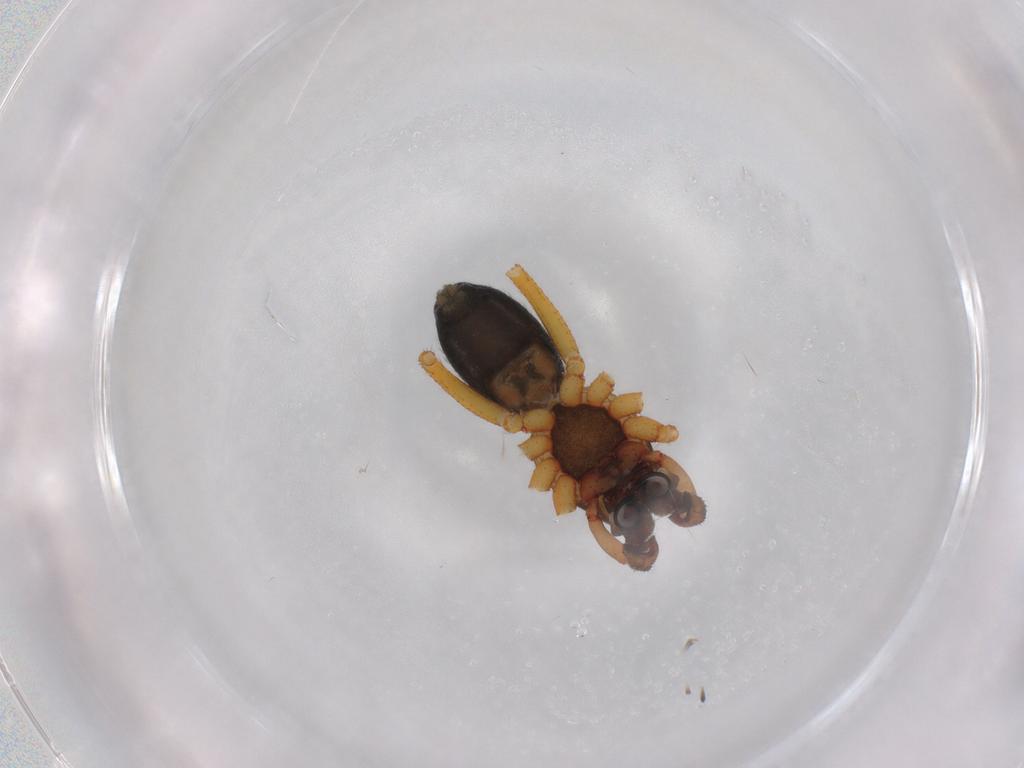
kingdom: Animalia
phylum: Arthropoda
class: Arachnida
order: Araneae
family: Linyphiidae
